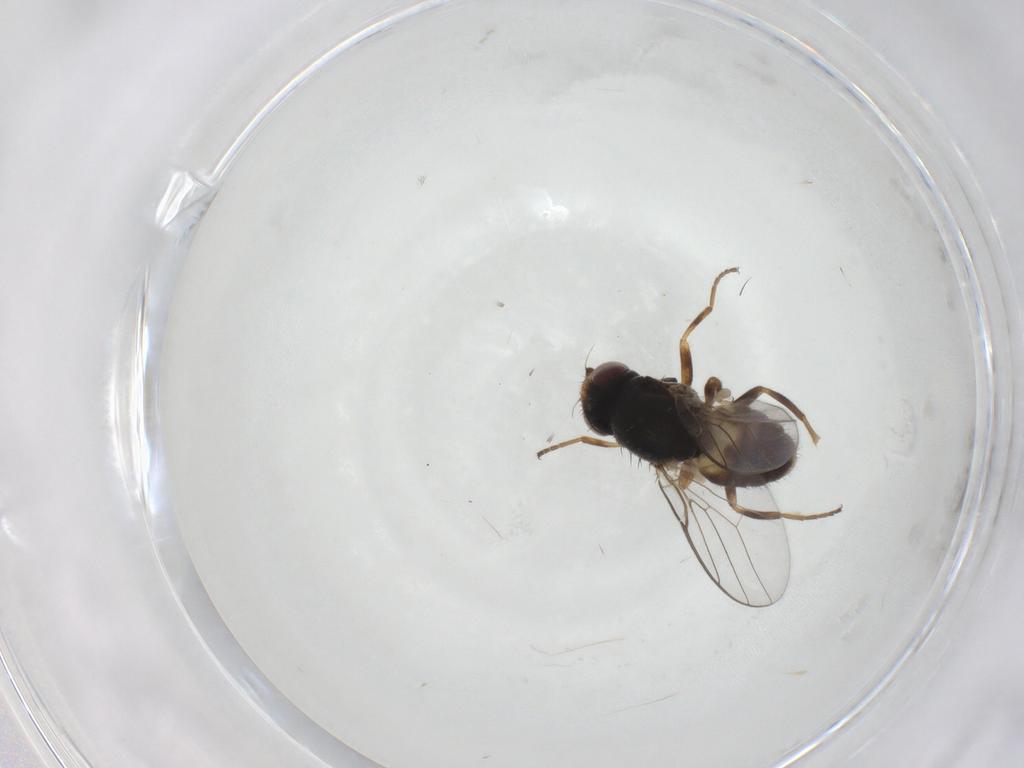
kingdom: Animalia
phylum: Arthropoda
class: Insecta
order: Diptera
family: Chloropidae
